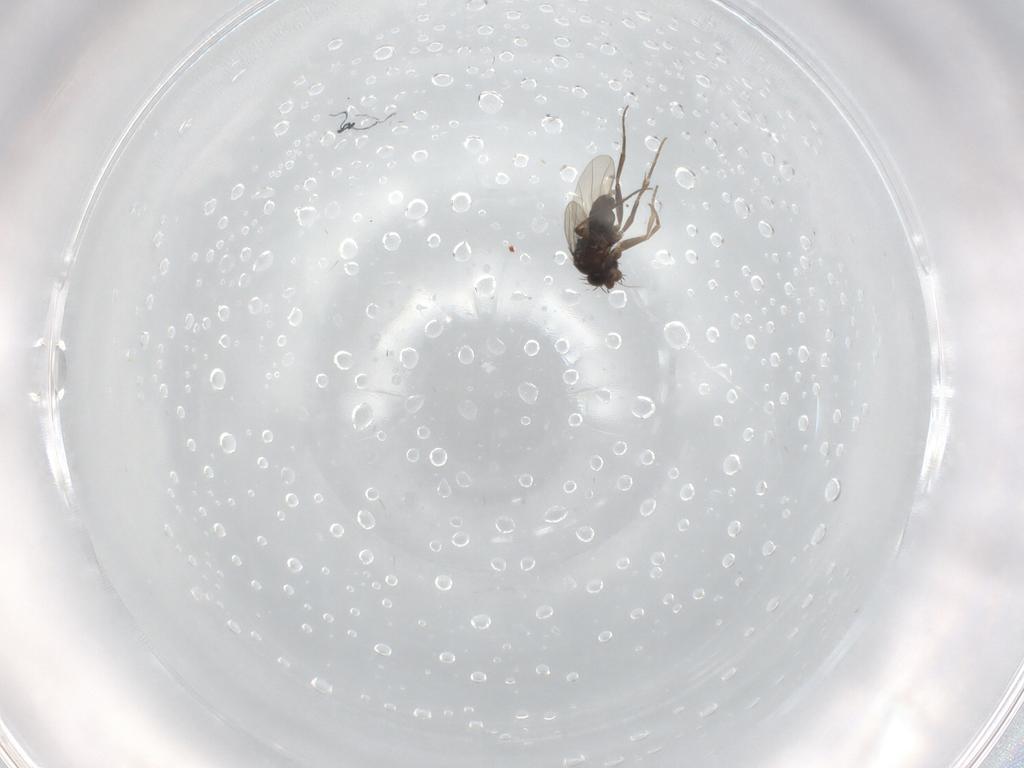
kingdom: Animalia
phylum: Arthropoda
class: Insecta
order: Diptera
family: Phoridae
